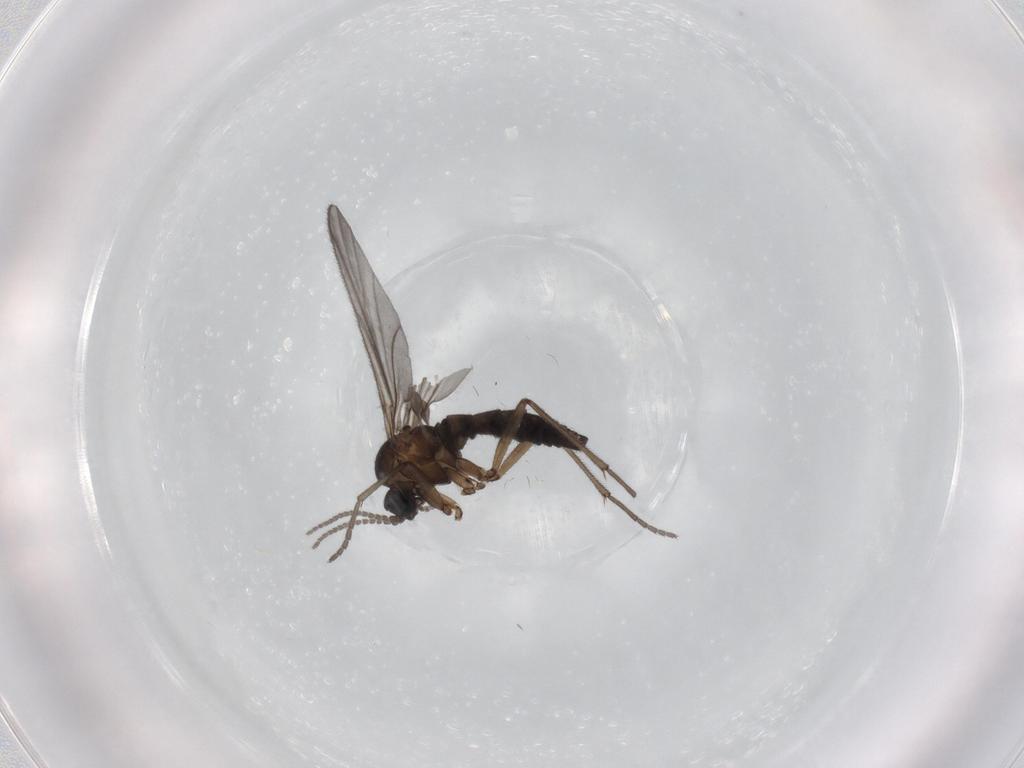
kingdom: Animalia
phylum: Arthropoda
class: Insecta
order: Diptera
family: Sciaridae
